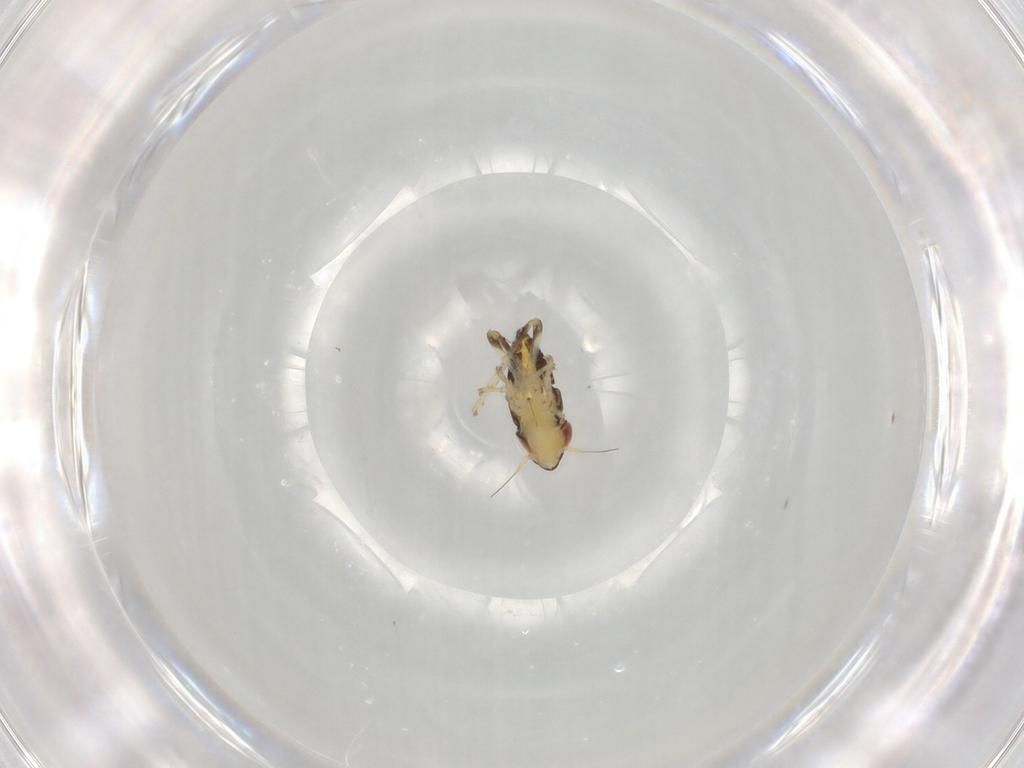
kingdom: Animalia
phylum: Arthropoda
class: Insecta
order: Hemiptera
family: Cicadellidae
